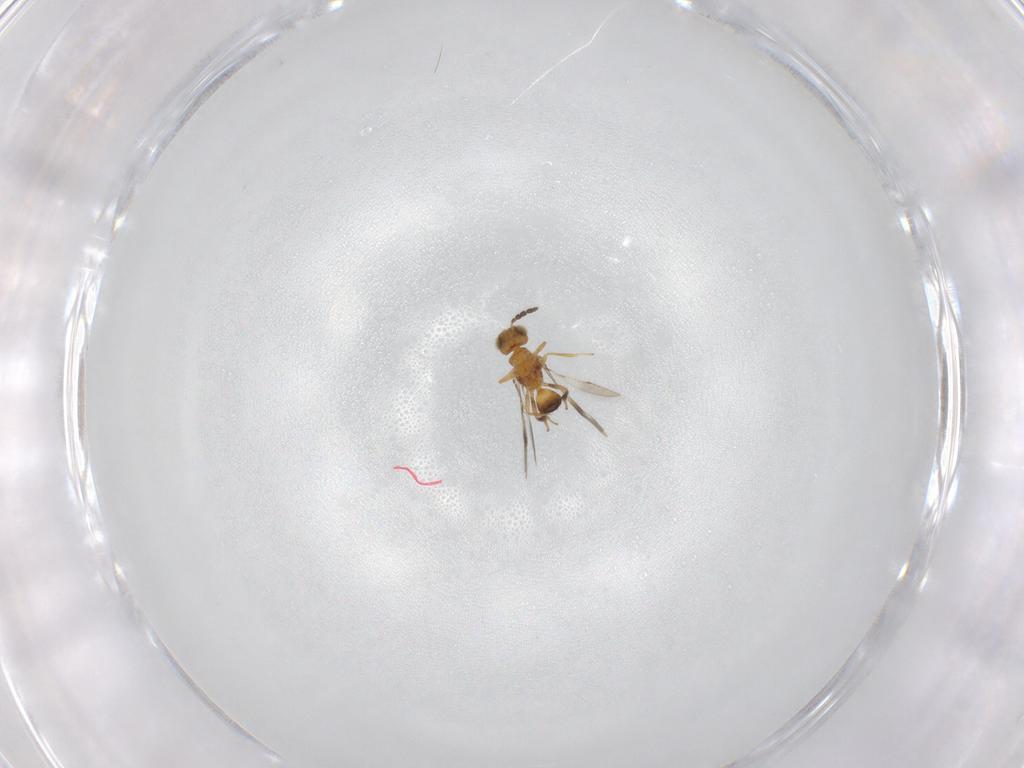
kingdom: Animalia
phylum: Arthropoda
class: Insecta
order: Hymenoptera
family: Pteromalidae
